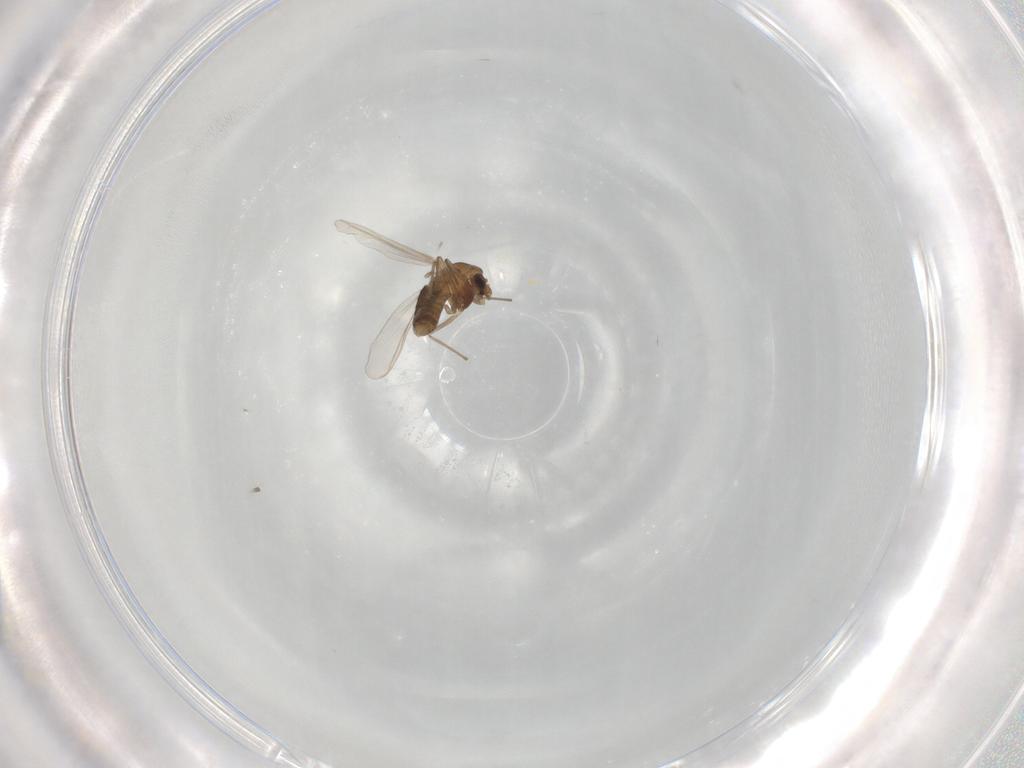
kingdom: Animalia
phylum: Arthropoda
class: Insecta
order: Diptera
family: Chironomidae
